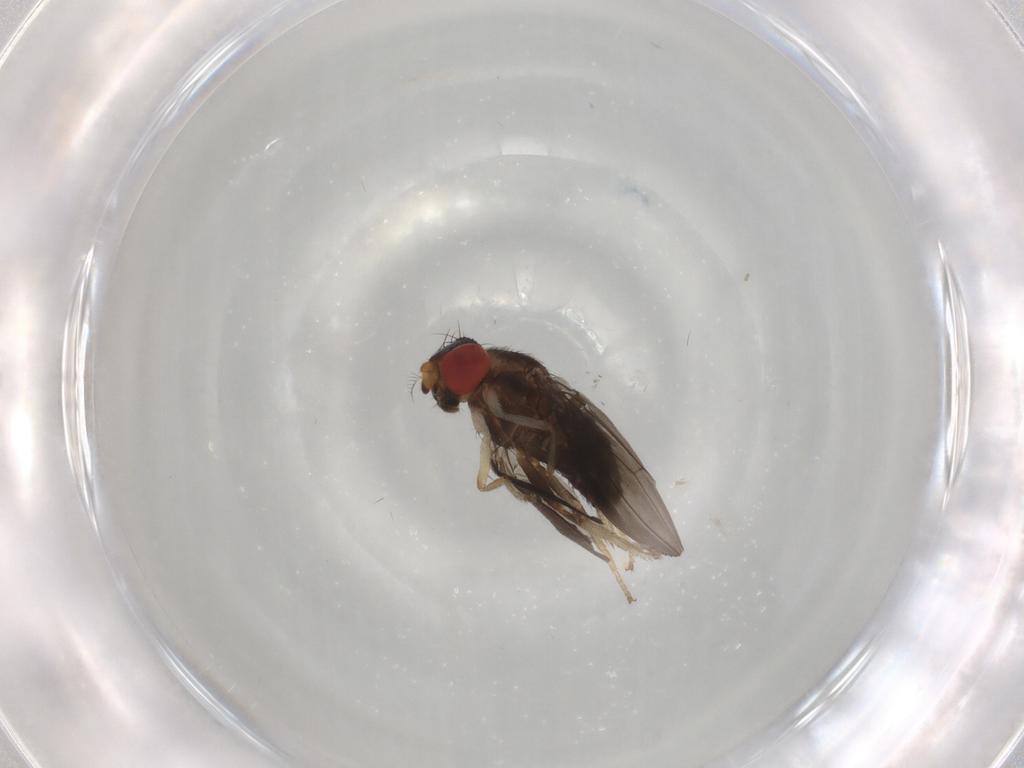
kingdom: Animalia
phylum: Arthropoda
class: Insecta
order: Diptera
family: Drosophilidae
